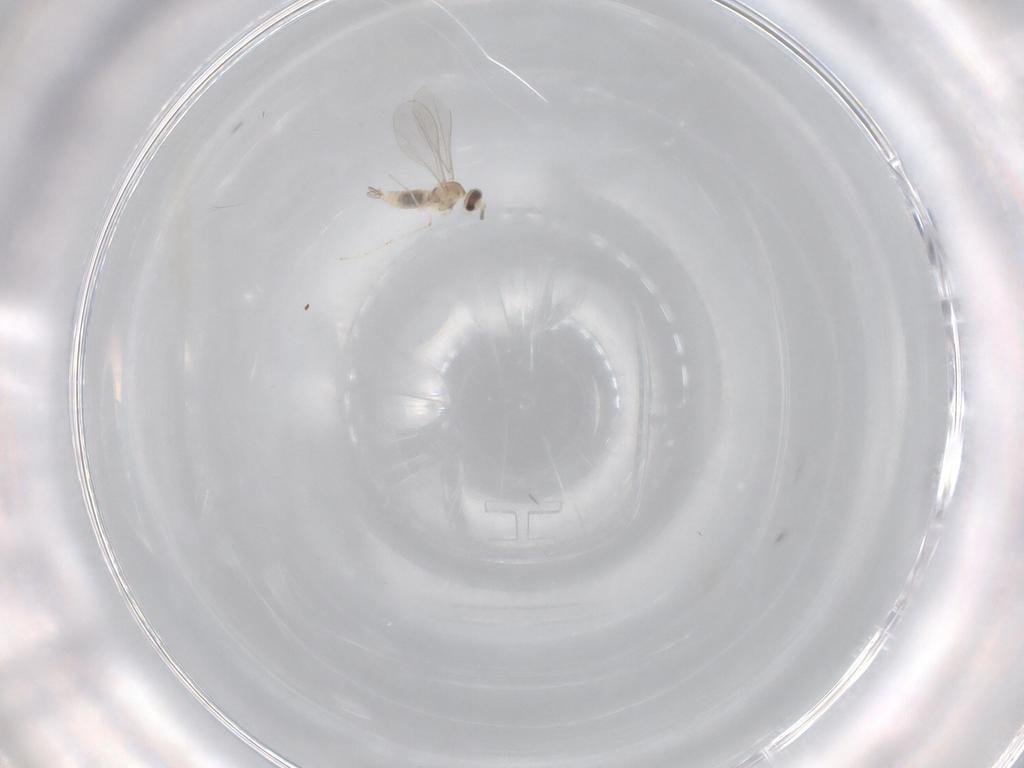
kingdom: Animalia
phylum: Arthropoda
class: Insecta
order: Diptera
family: Cecidomyiidae
